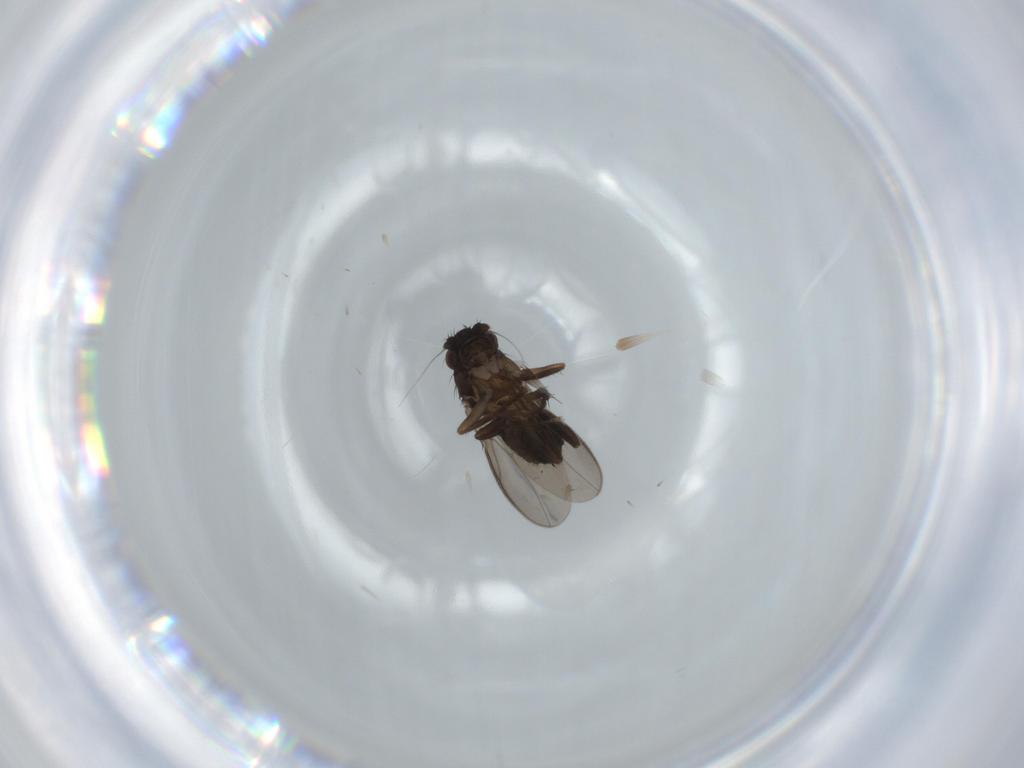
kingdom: Animalia
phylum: Arthropoda
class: Insecta
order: Diptera
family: Sphaeroceridae
